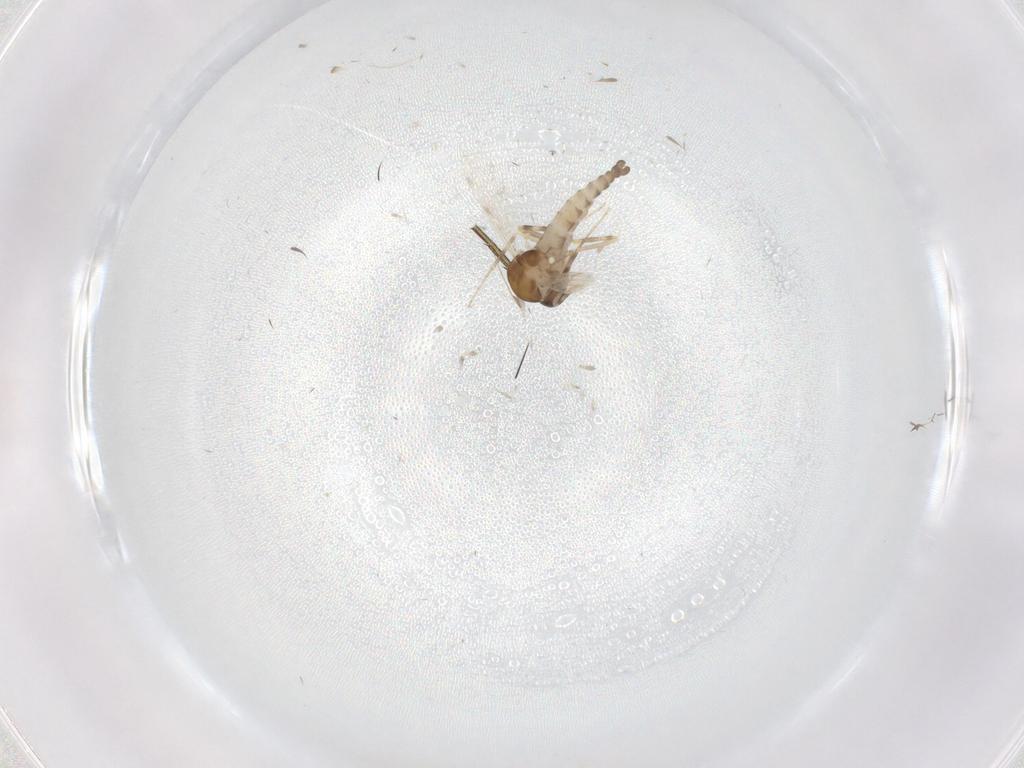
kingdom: Animalia
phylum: Arthropoda
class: Insecta
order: Diptera
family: Ceratopogonidae
